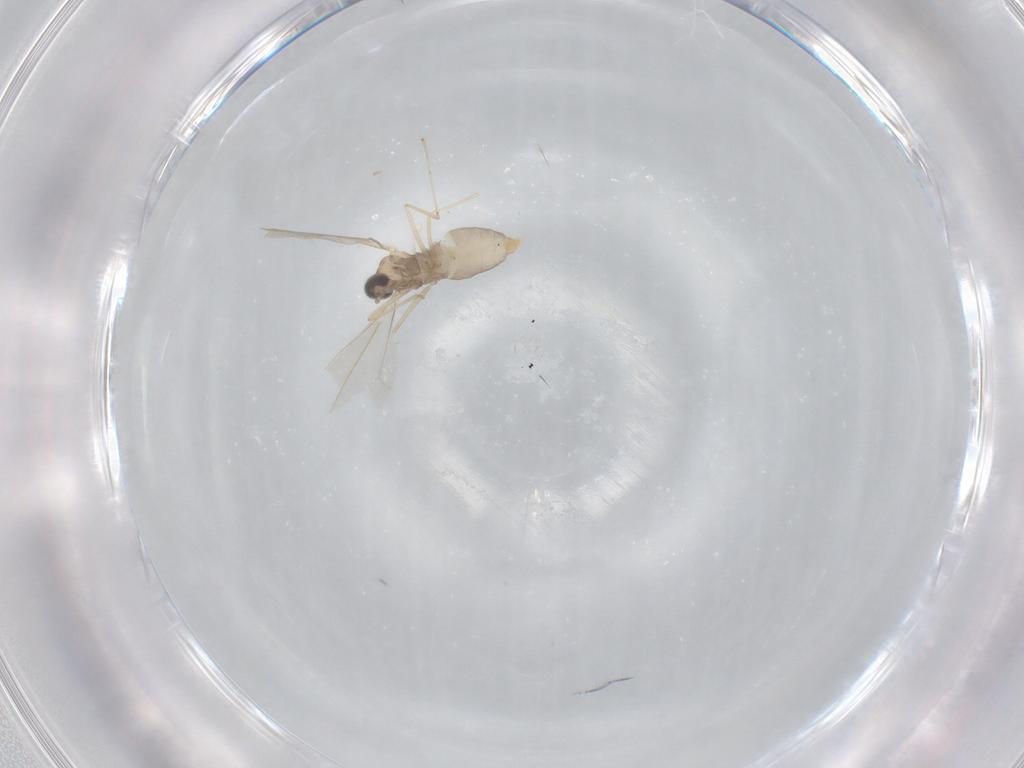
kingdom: Animalia
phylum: Arthropoda
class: Insecta
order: Diptera
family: Cecidomyiidae
